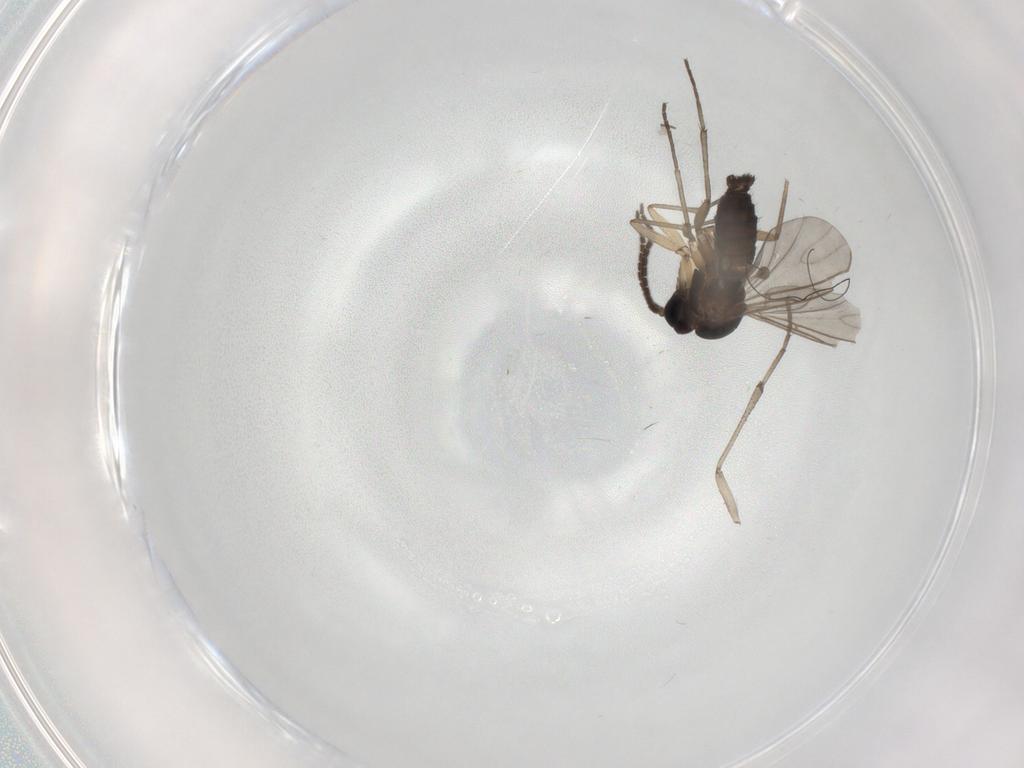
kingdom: Animalia
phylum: Arthropoda
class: Insecta
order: Diptera
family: Sciaridae
